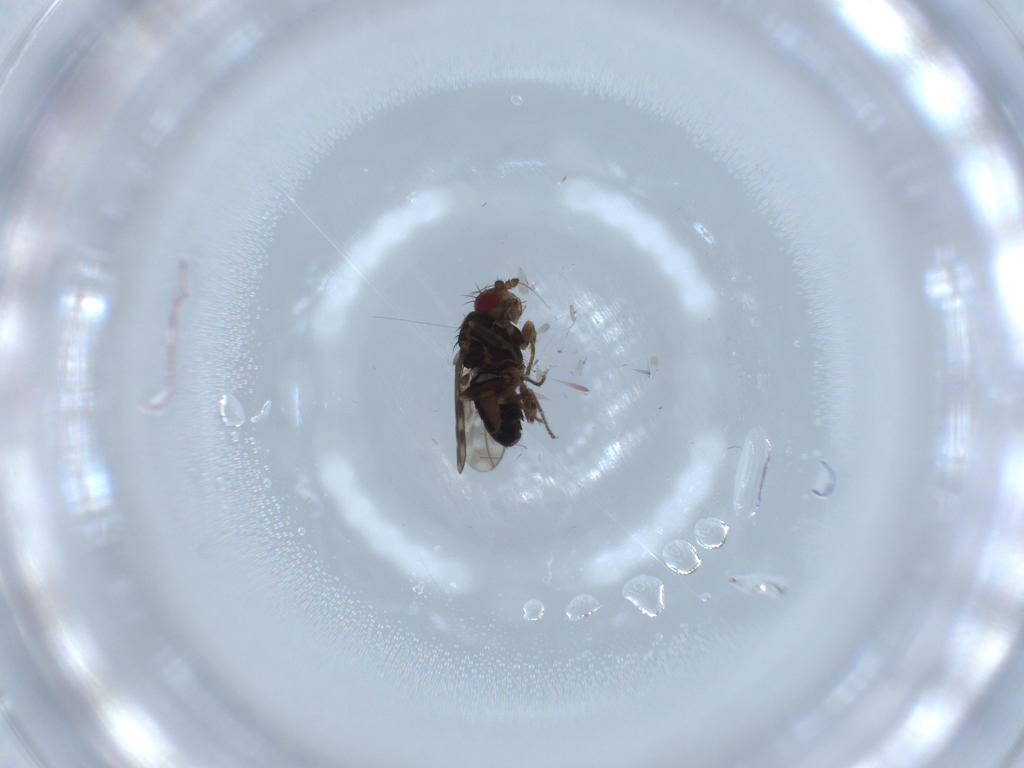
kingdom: Animalia
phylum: Arthropoda
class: Insecta
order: Diptera
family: Sphaeroceridae
